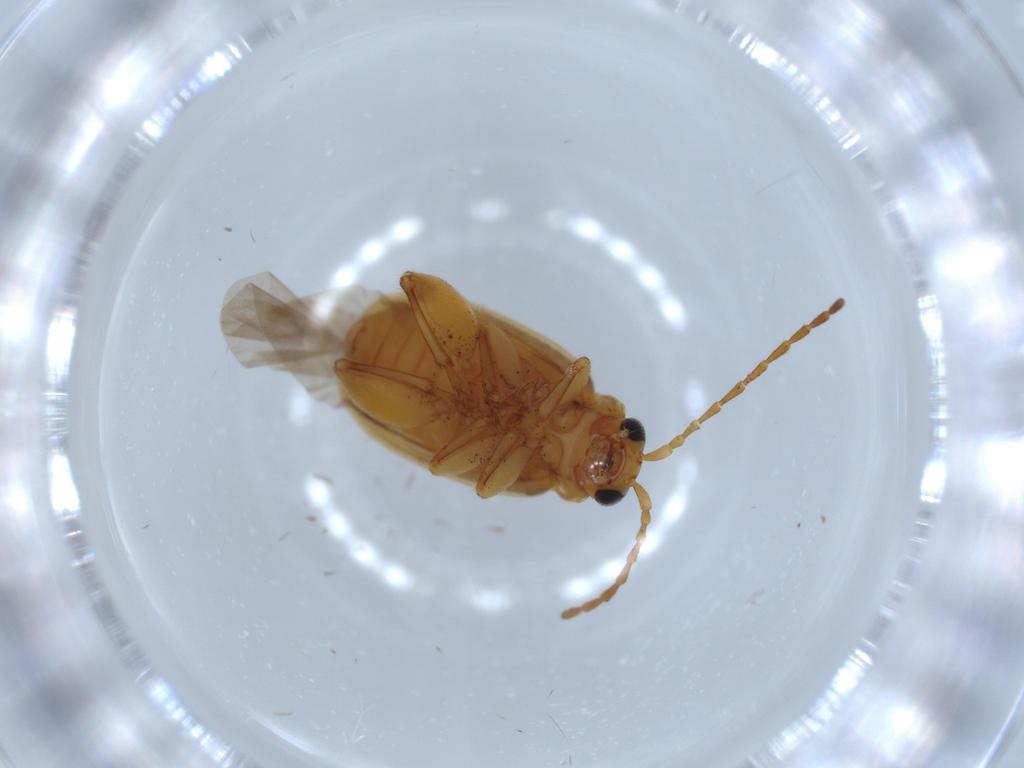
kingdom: Animalia
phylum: Arthropoda
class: Insecta
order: Coleoptera
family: Chrysomelidae
